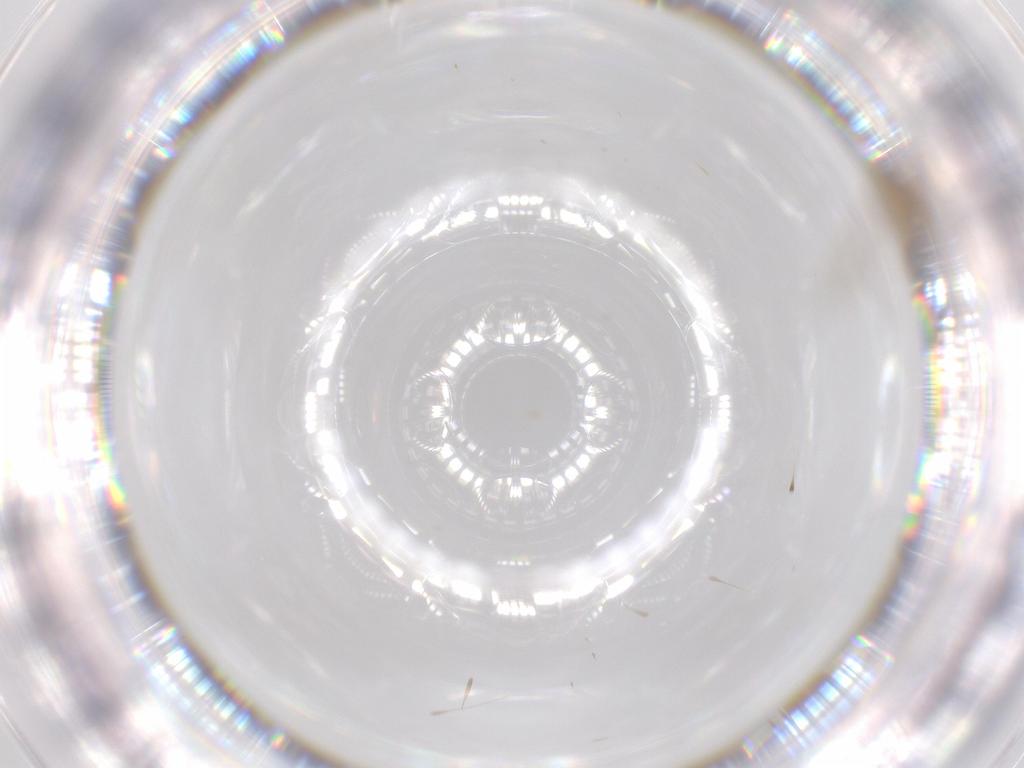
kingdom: Animalia
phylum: Arthropoda
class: Insecta
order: Diptera
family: Chironomidae
